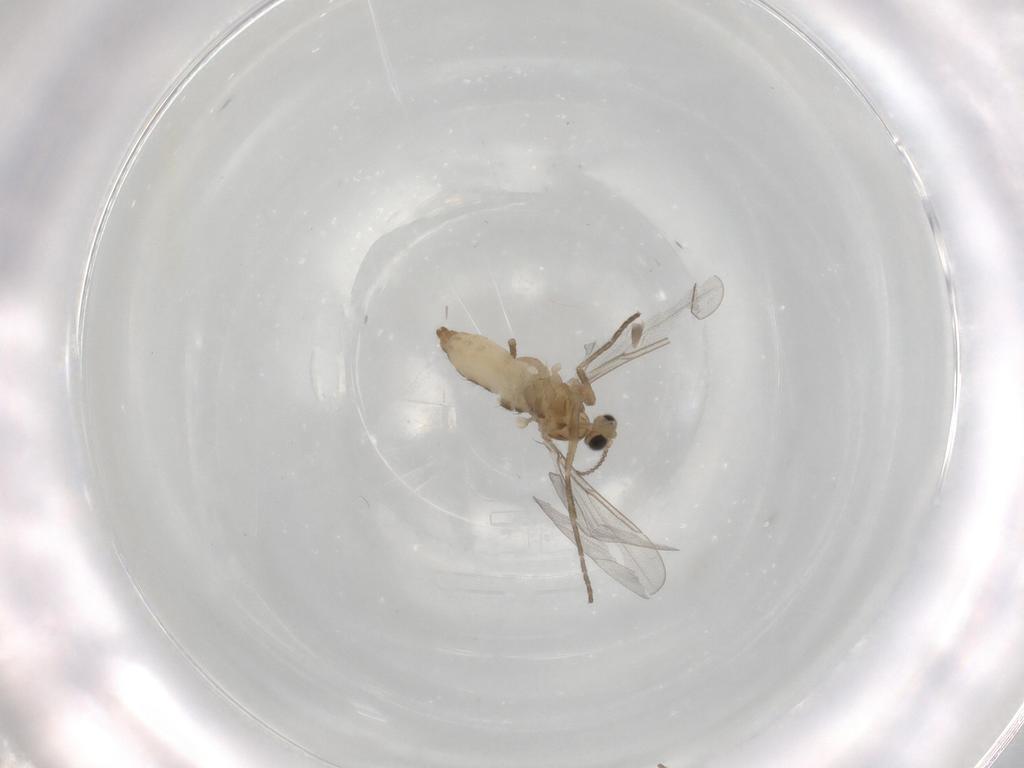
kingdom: Animalia
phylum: Arthropoda
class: Insecta
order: Diptera
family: Cecidomyiidae
